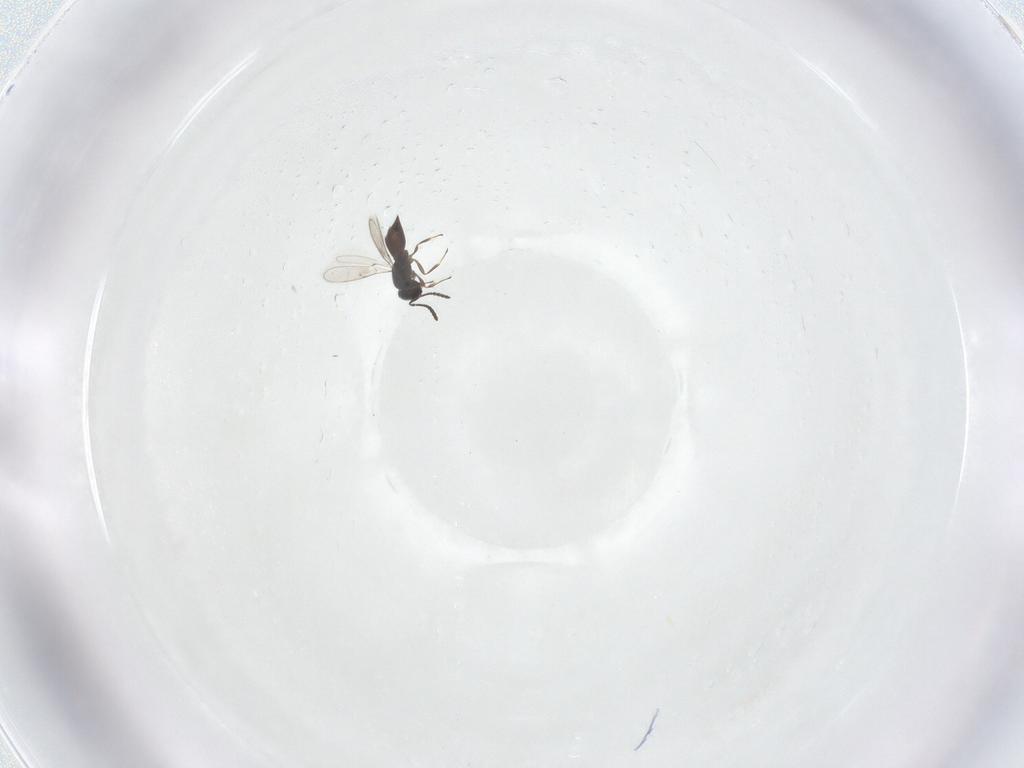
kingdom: Animalia
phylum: Arthropoda
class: Insecta
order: Hymenoptera
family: Scelionidae
